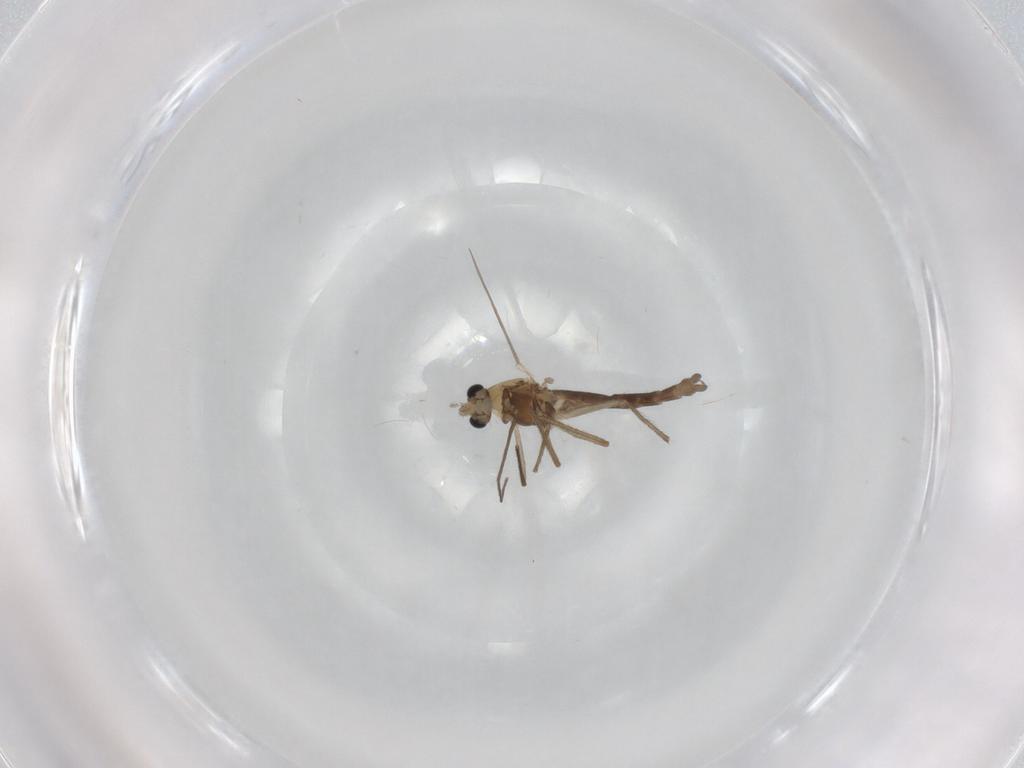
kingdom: Animalia
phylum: Arthropoda
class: Insecta
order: Diptera
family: Chironomidae
